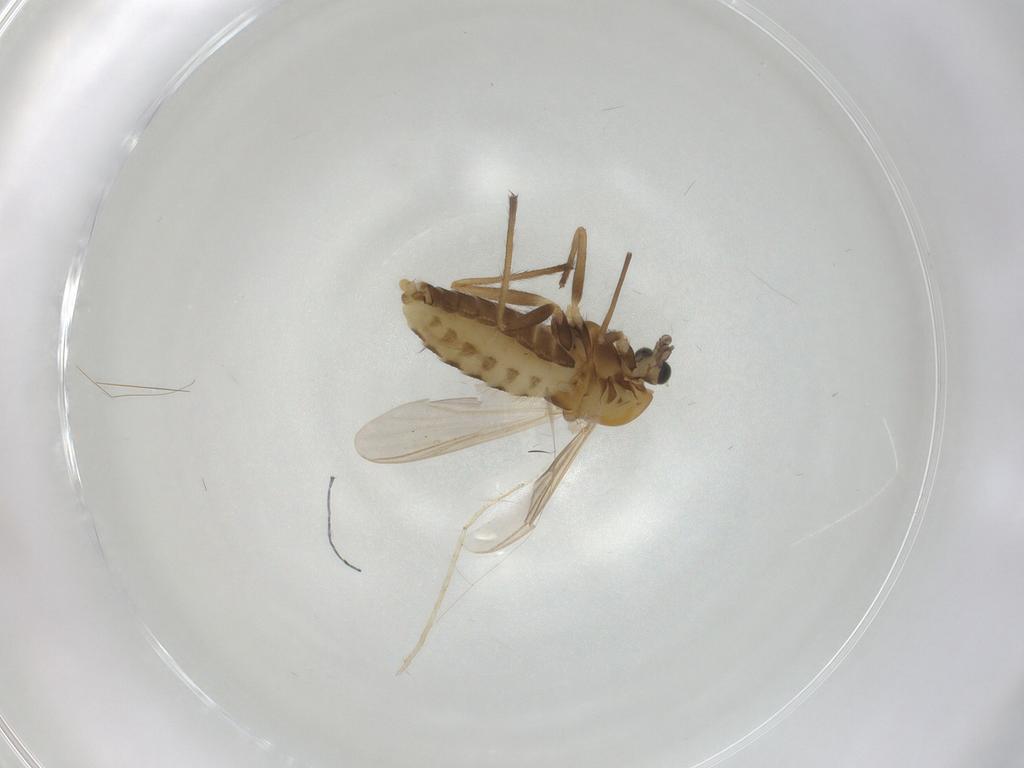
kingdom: Animalia
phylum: Arthropoda
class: Insecta
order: Diptera
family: Chironomidae
